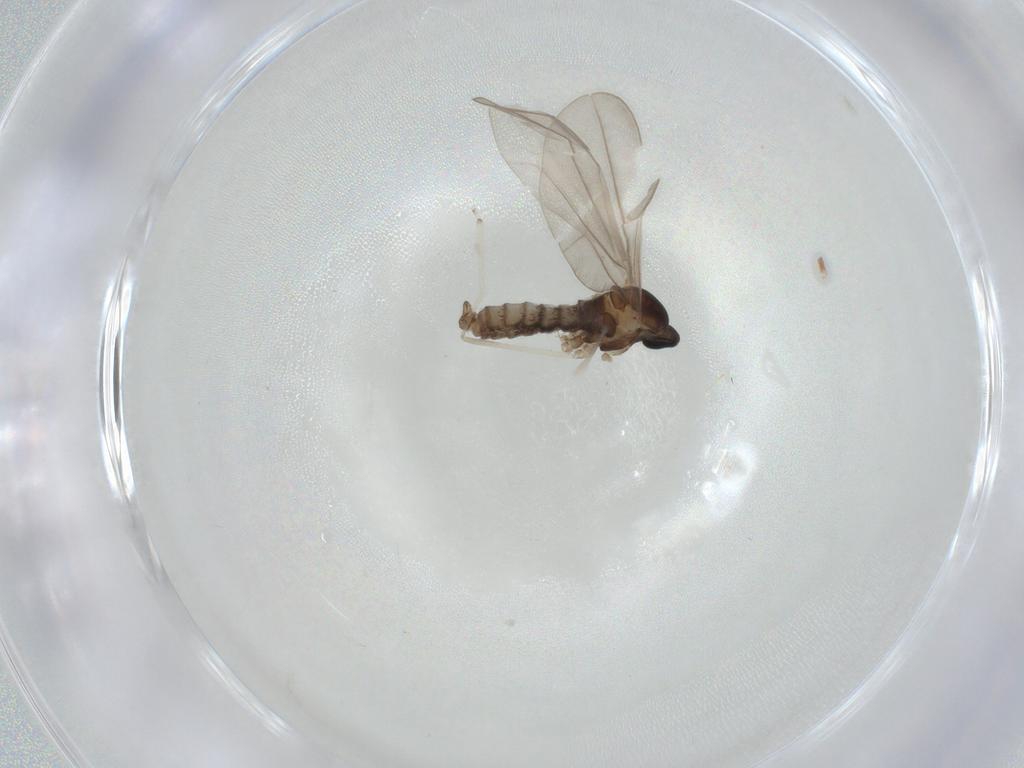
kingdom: Animalia
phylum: Arthropoda
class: Insecta
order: Diptera
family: Cecidomyiidae
